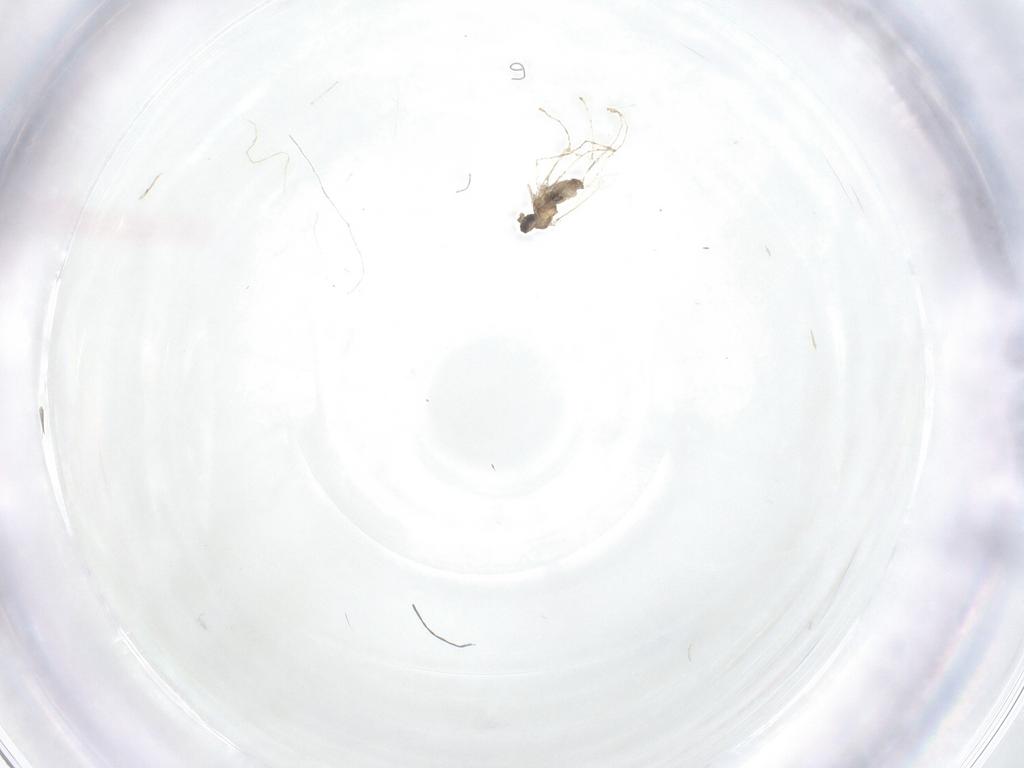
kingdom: Animalia
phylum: Arthropoda
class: Insecta
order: Diptera
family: Cecidomyiidae
